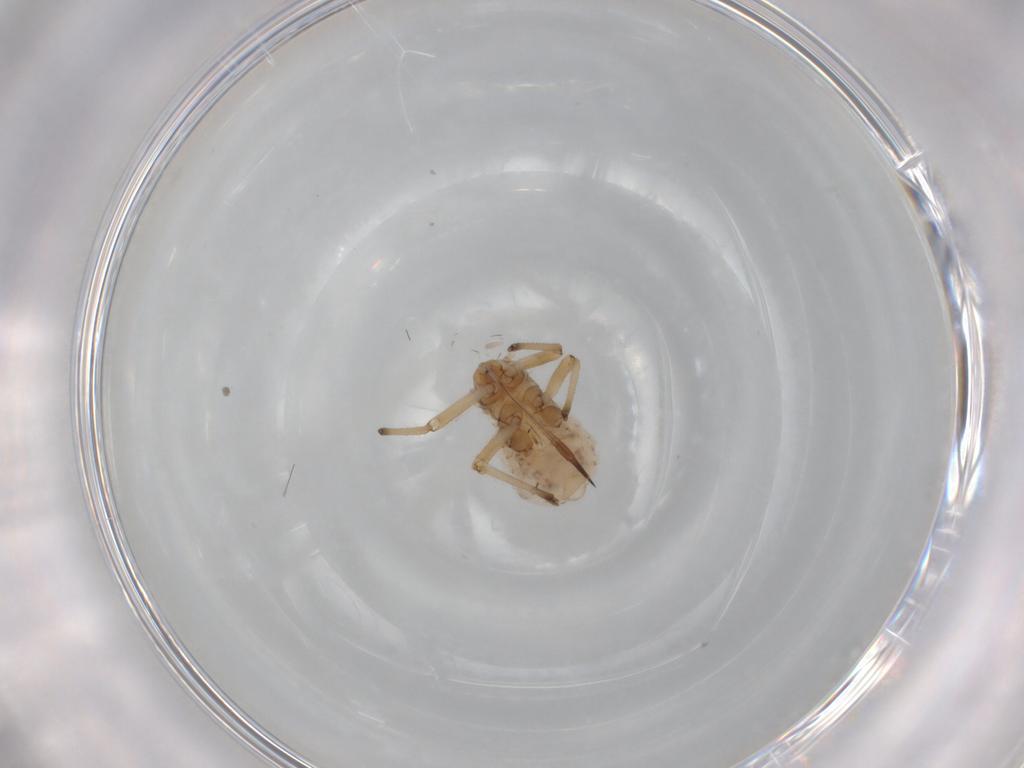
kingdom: Animalia
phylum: Arthropoda
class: Insecta
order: Hemiptera
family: Aphididae
